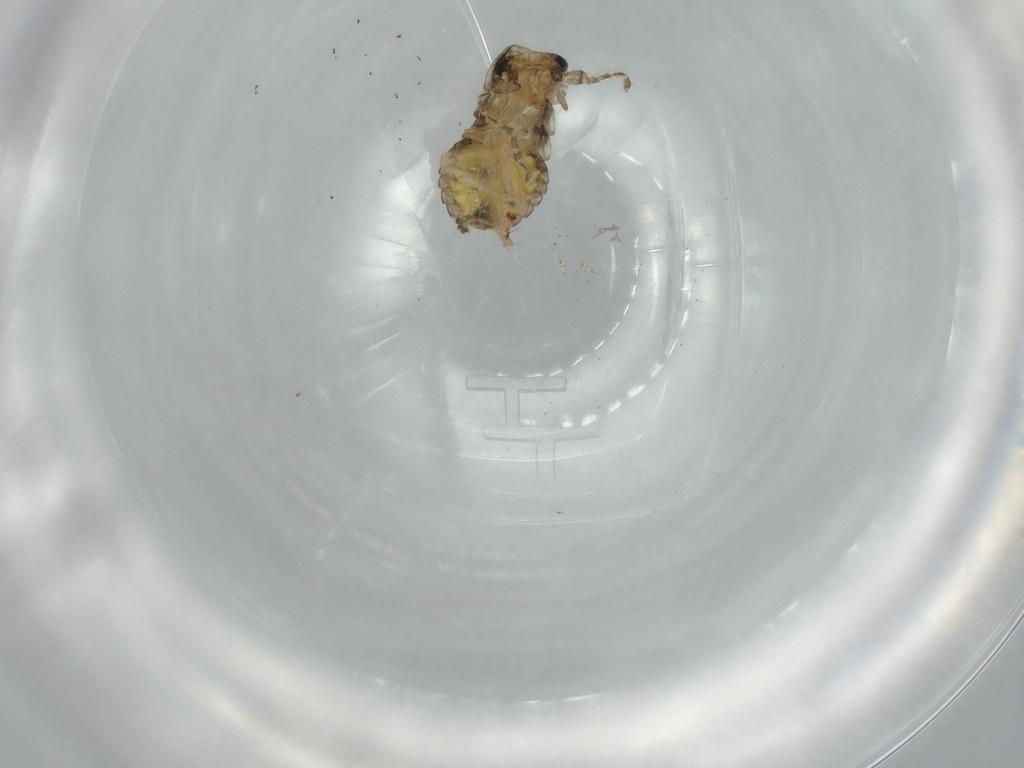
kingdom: Animalia
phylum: Arthropoda
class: Insecta
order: Blattodea
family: Ectobiidae
